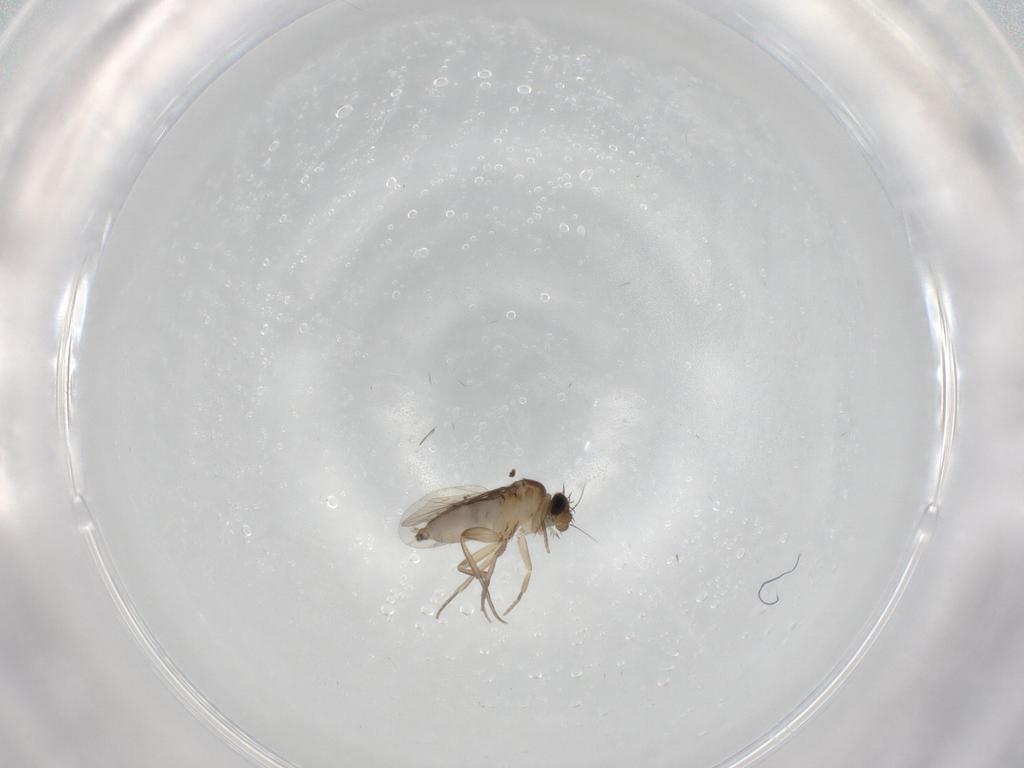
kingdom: Animalia
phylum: Arthropoda
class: Insecta
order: Diptera
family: Phoridae
